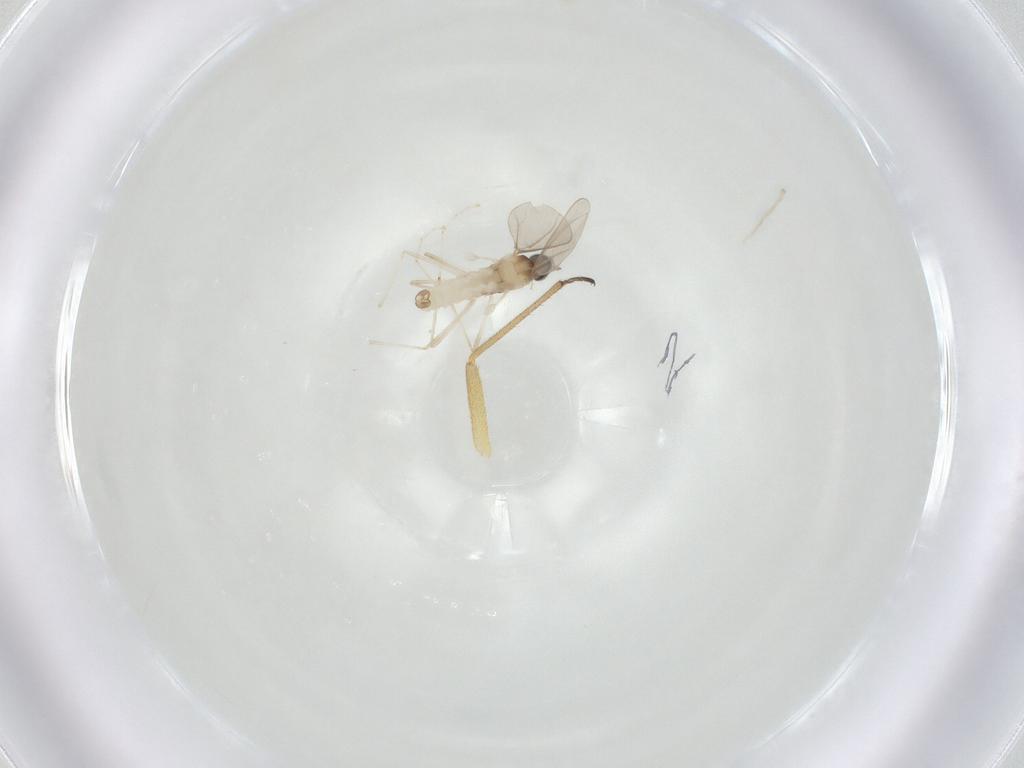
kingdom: Animalia
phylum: Arthropoda
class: Insecta
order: Diptera
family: Cecidomyiidae
